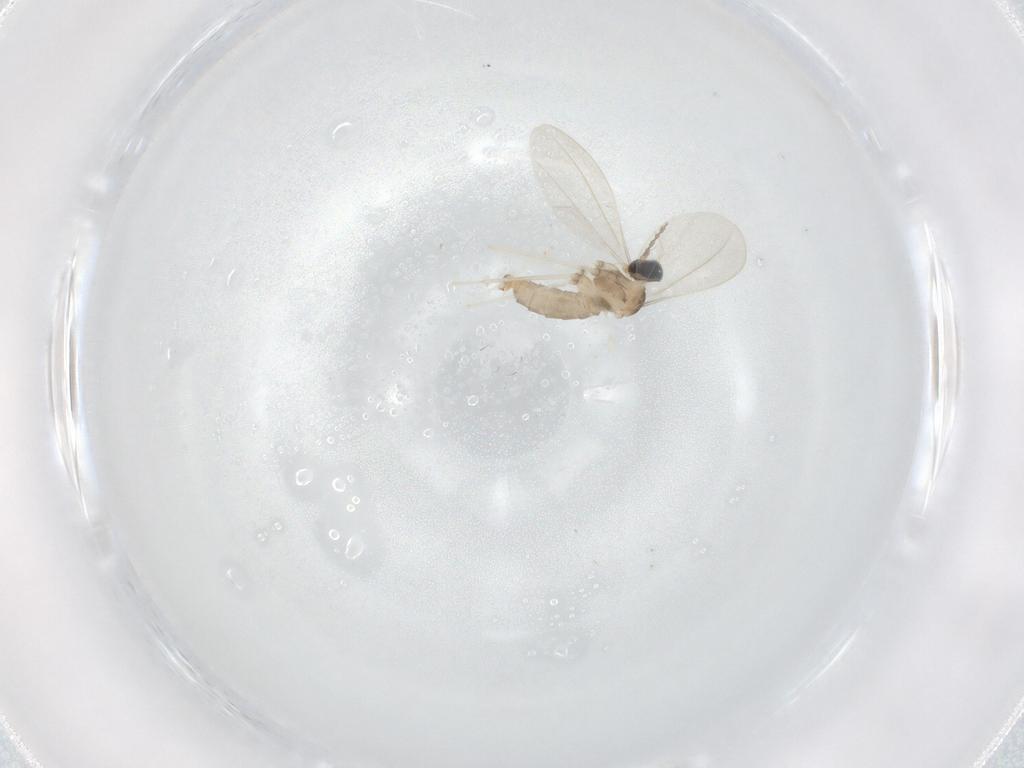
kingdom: Animalia
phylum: Arthropoda
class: Insecta
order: Diptera
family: Cecidomyiidae
